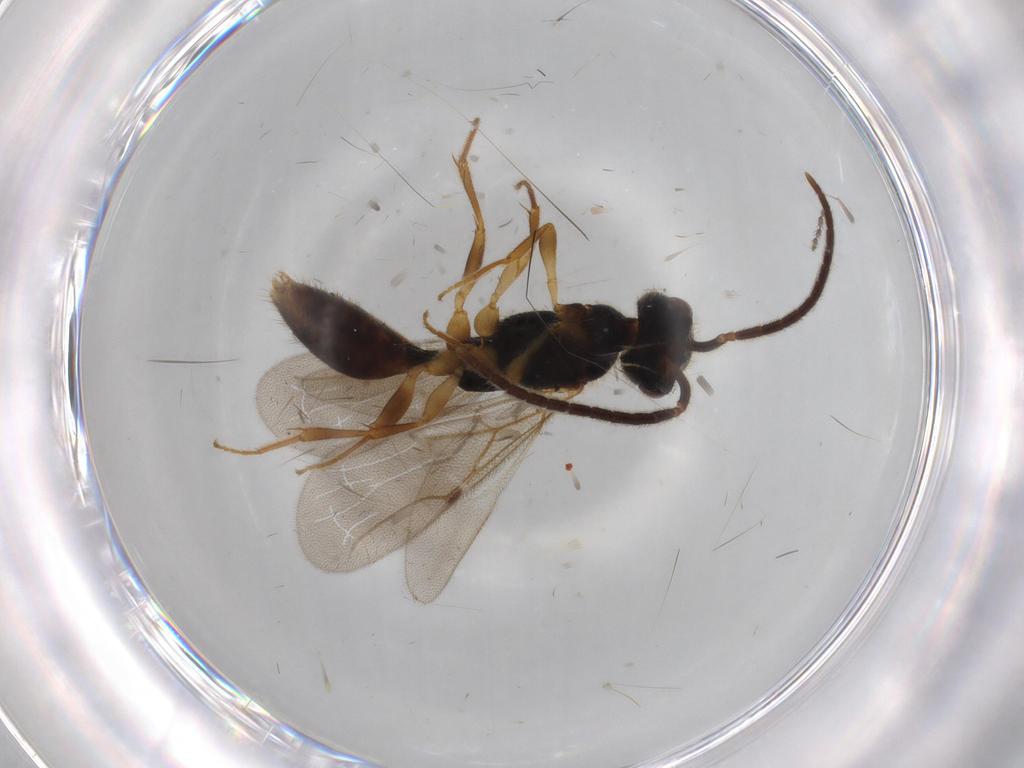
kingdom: Animalia
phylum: Arthropoda
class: Insecta
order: Hymenoptera
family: Bethylidae
